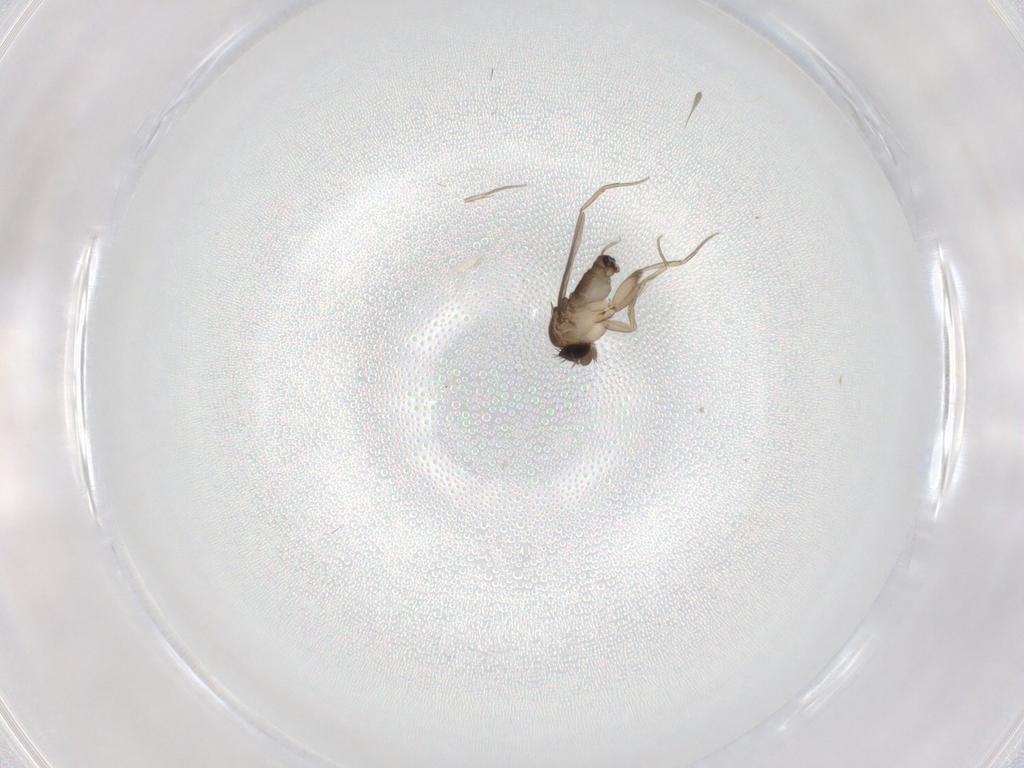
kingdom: Animalia
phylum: Arthropoda
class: Insecta
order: Diptera
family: Phoridae
